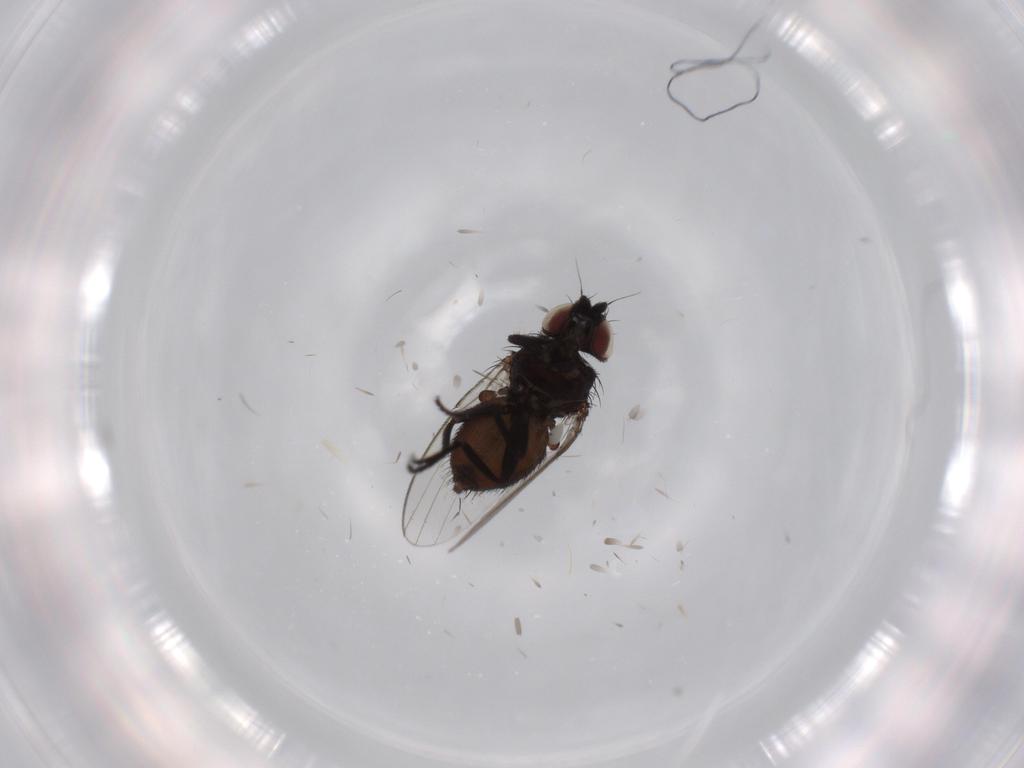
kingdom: Animalia
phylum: Arthropoda
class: Insecta
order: Diptera
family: Milichiidae
